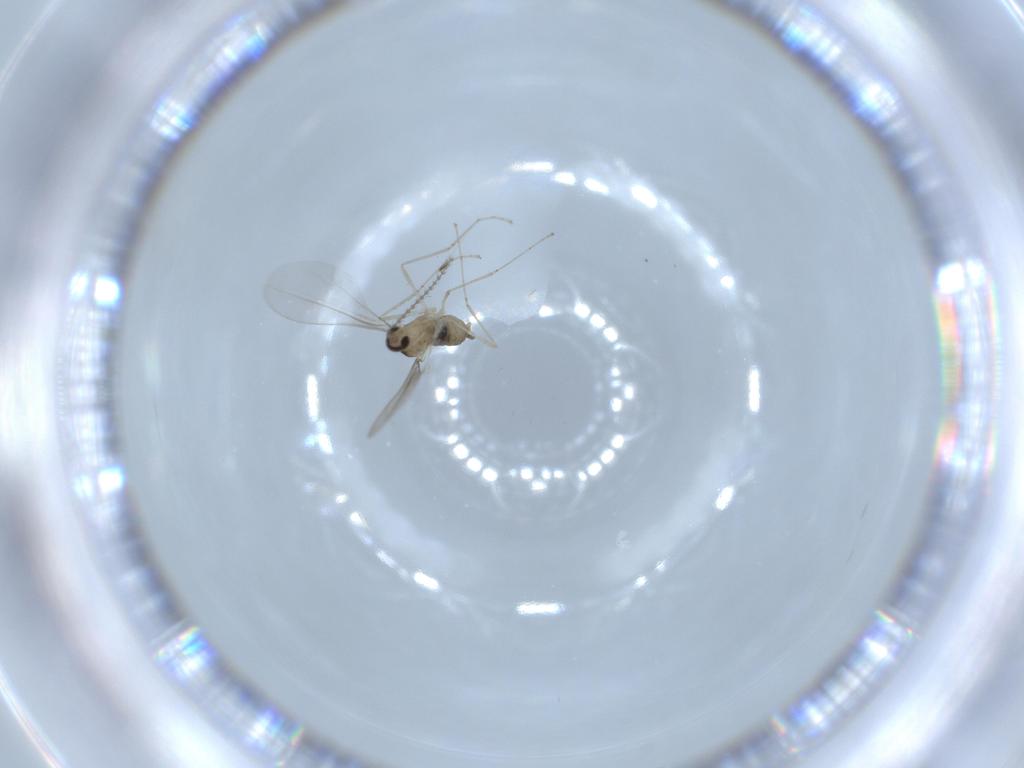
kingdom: Animalia
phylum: Arthropoda
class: Insecta
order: Diptera
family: Cecidomyiidae
